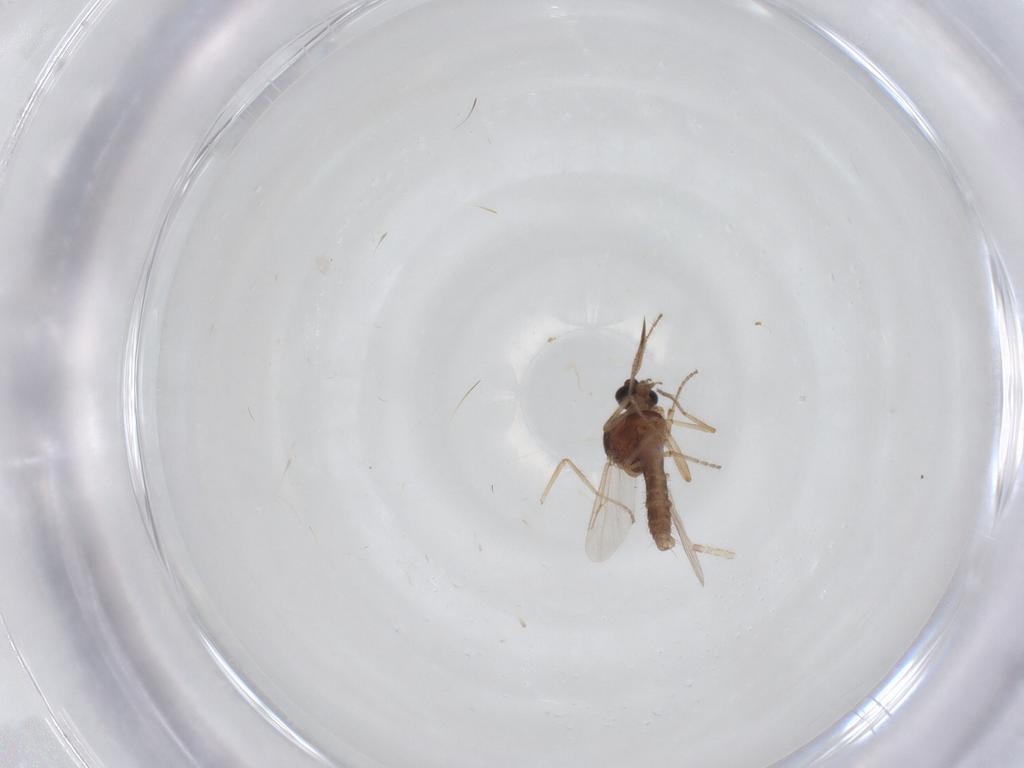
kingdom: Animalia
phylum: Arthropoda
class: Insecta
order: Diptera
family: Ceratopogonidae
